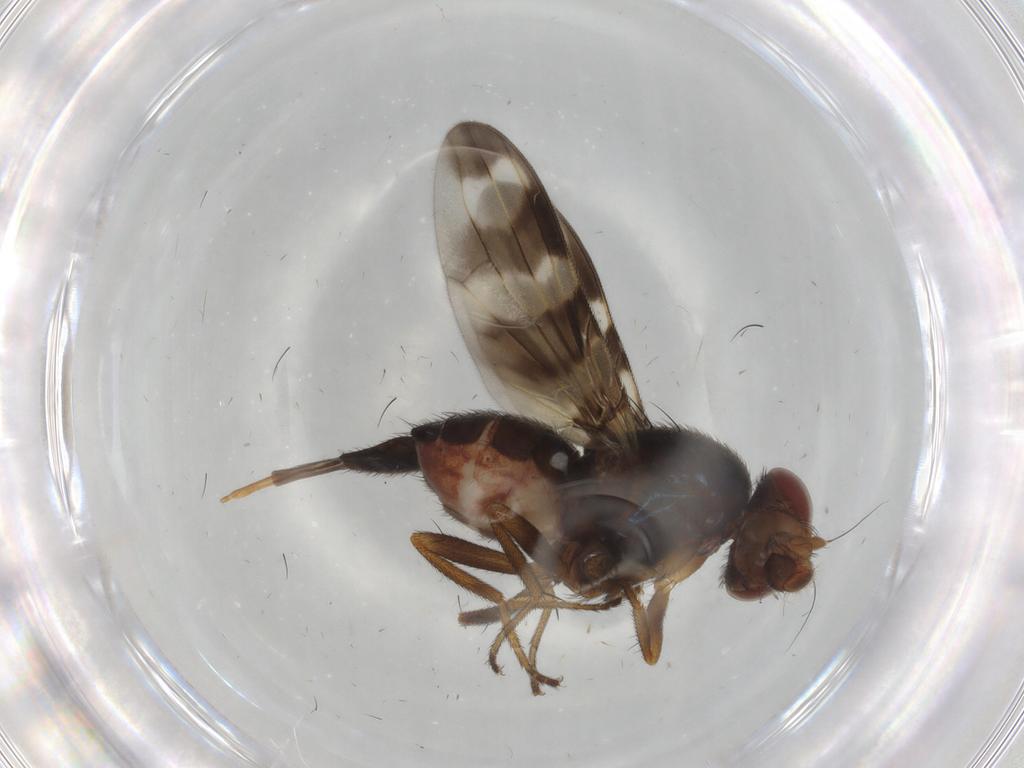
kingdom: Animalia
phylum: Arthropoda
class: Insecta
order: Diptera
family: Ulidiidae
